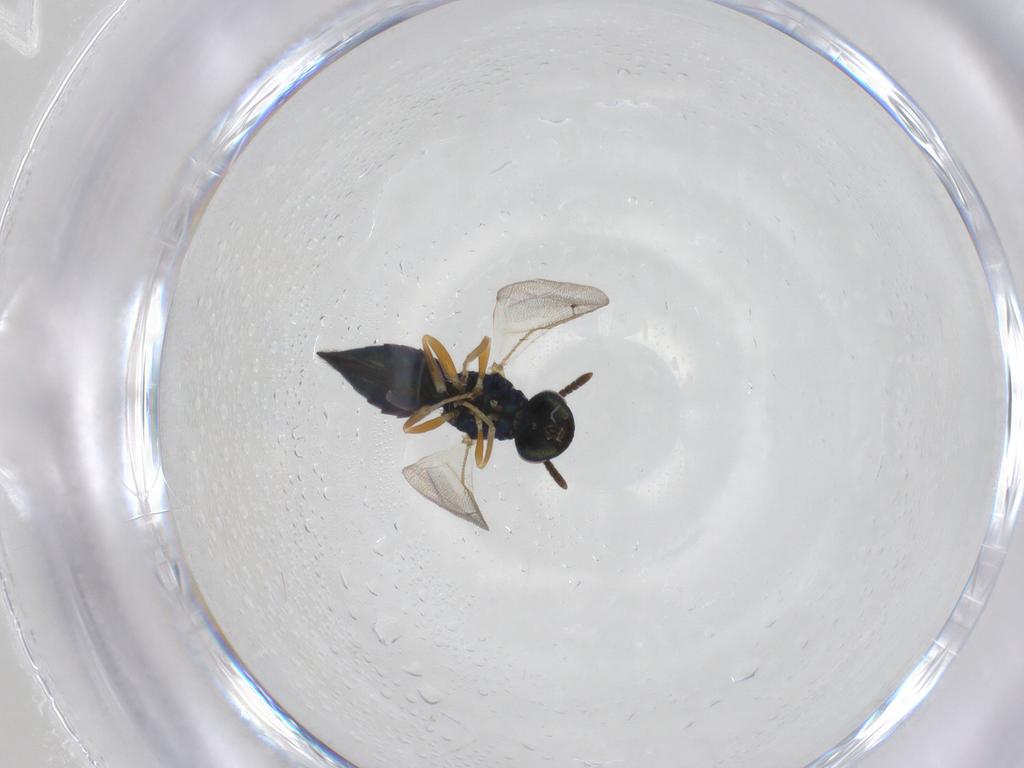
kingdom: Animalia
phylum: Arthropoda
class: Insecta
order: Hymenoptera
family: Pteromalidae
